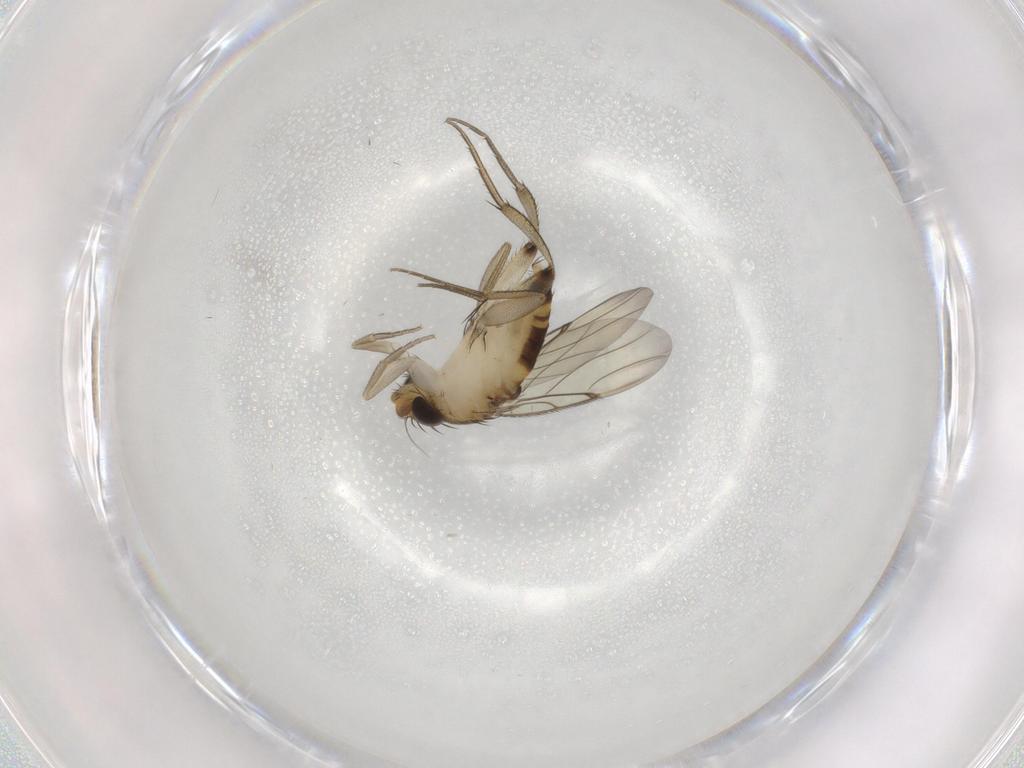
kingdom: Animalia
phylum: Arthropoda
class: Insecta
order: Diptera
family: Phoridae
